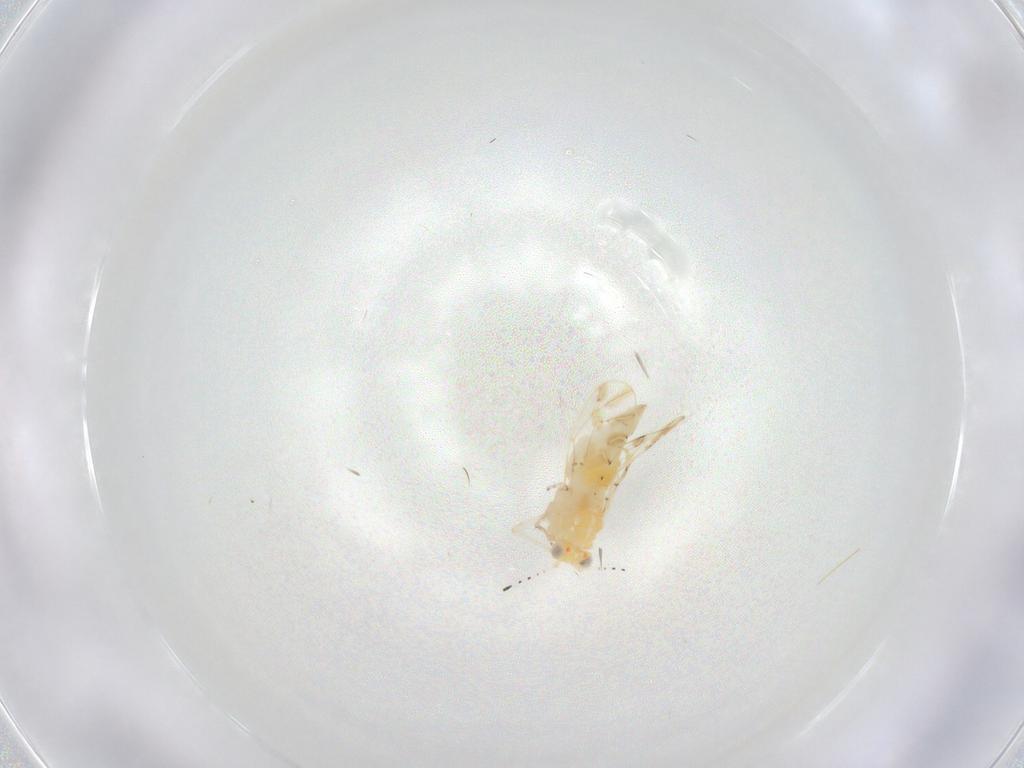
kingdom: Animalia
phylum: Arthropoda
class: Insecta
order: Hemiptera
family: Aphalaridae
